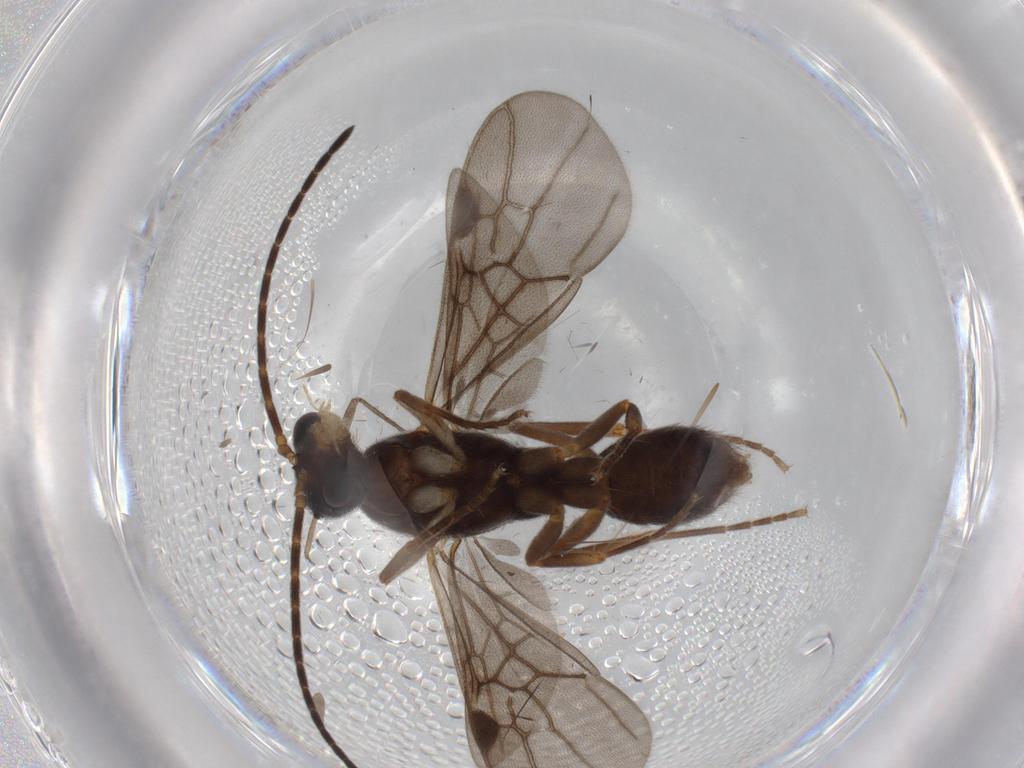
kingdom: Animalia
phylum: Arthropoda
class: Insecta
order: Hymenoptera
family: Formicidae
